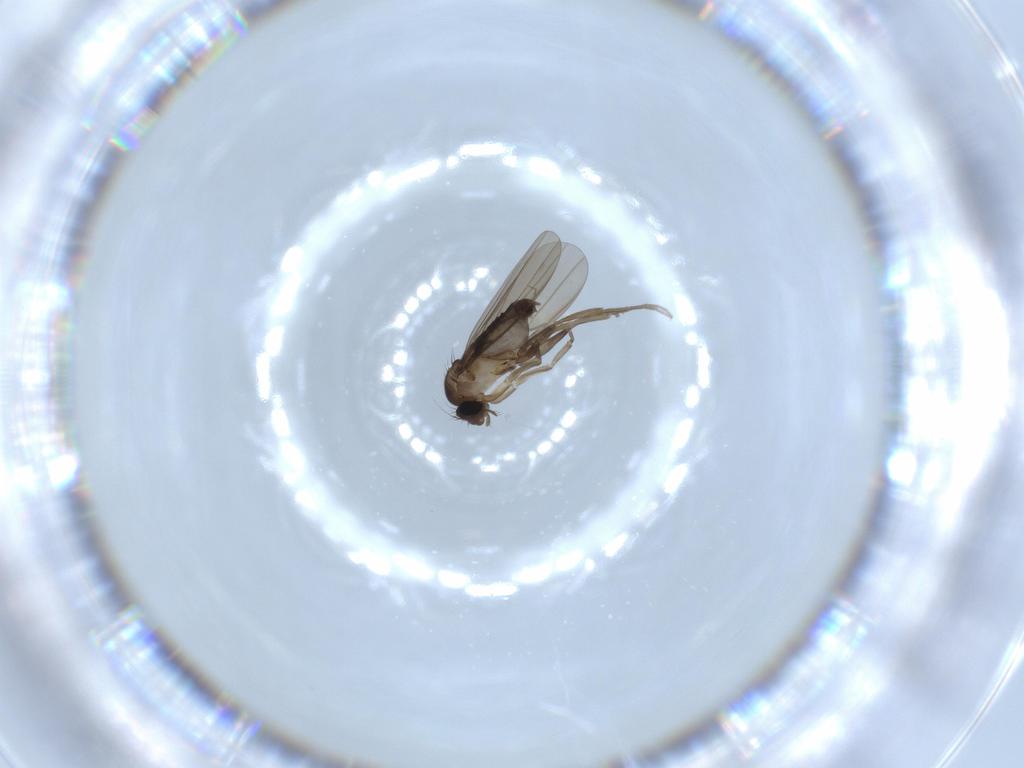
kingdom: Animalia
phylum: Arthropoda
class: Insecta
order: Diptera
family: Phoridae
